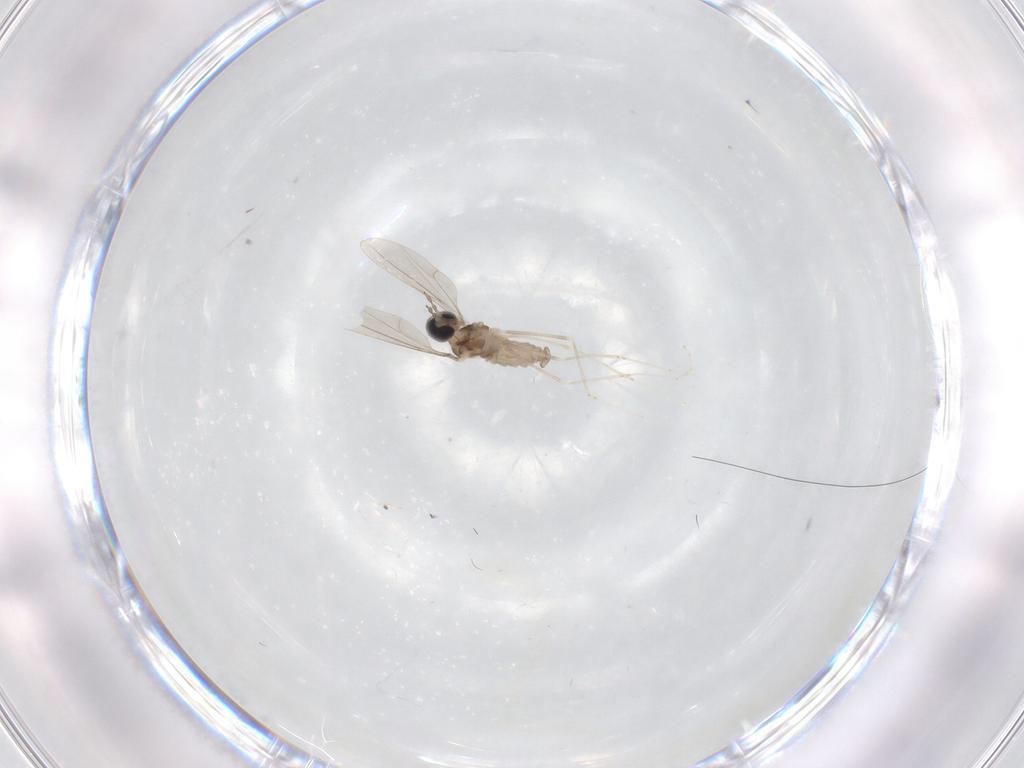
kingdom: Animalia
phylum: Arthropoda
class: Insecta
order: Diptera
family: Cecidomyiidae
